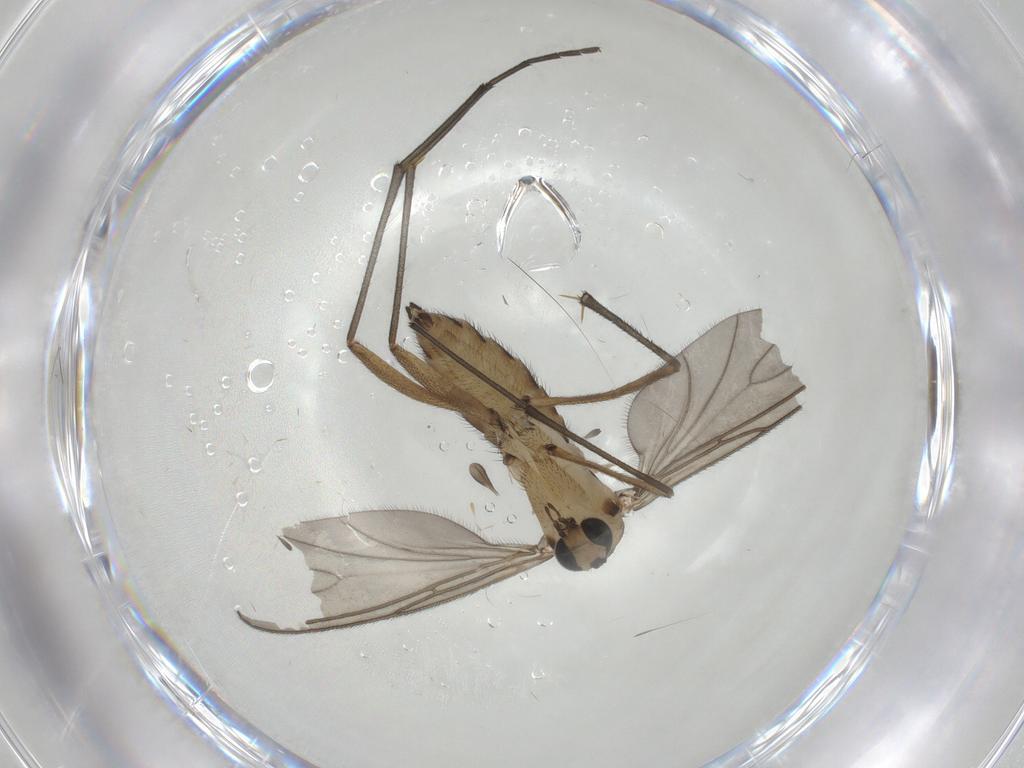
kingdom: Animalia
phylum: Arthropoda
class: Insecta
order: Diptera
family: Sciaridae
